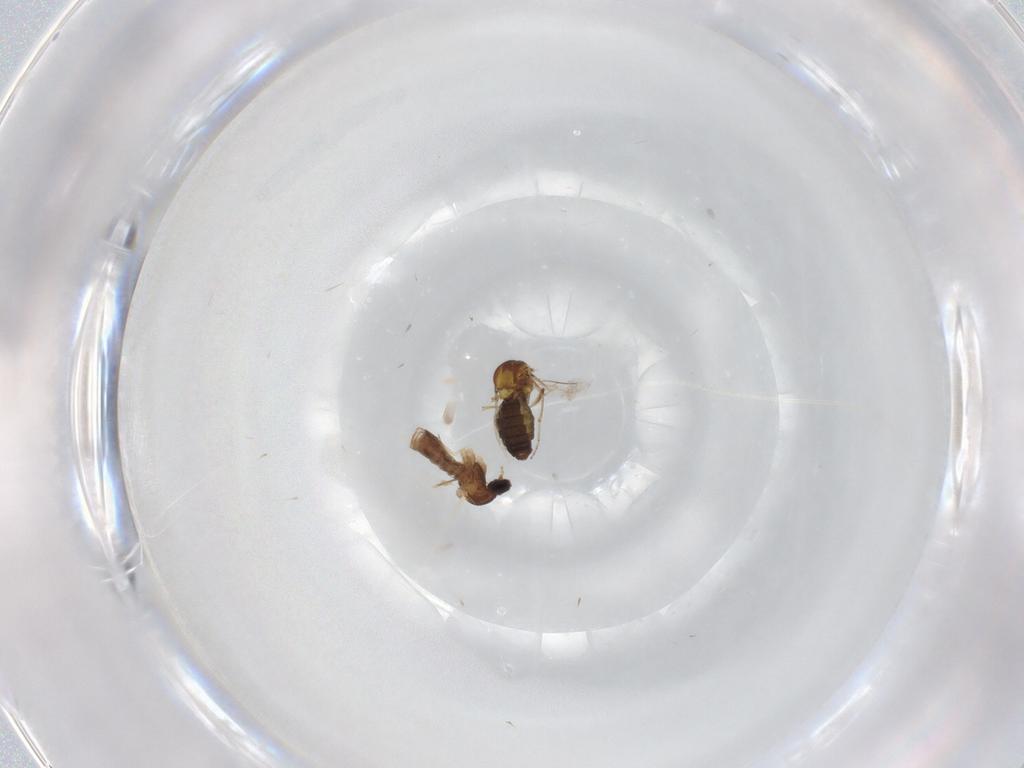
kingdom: Animalia
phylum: Arthropoda
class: Insecta
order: Diptera
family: Ceratopogonidae
